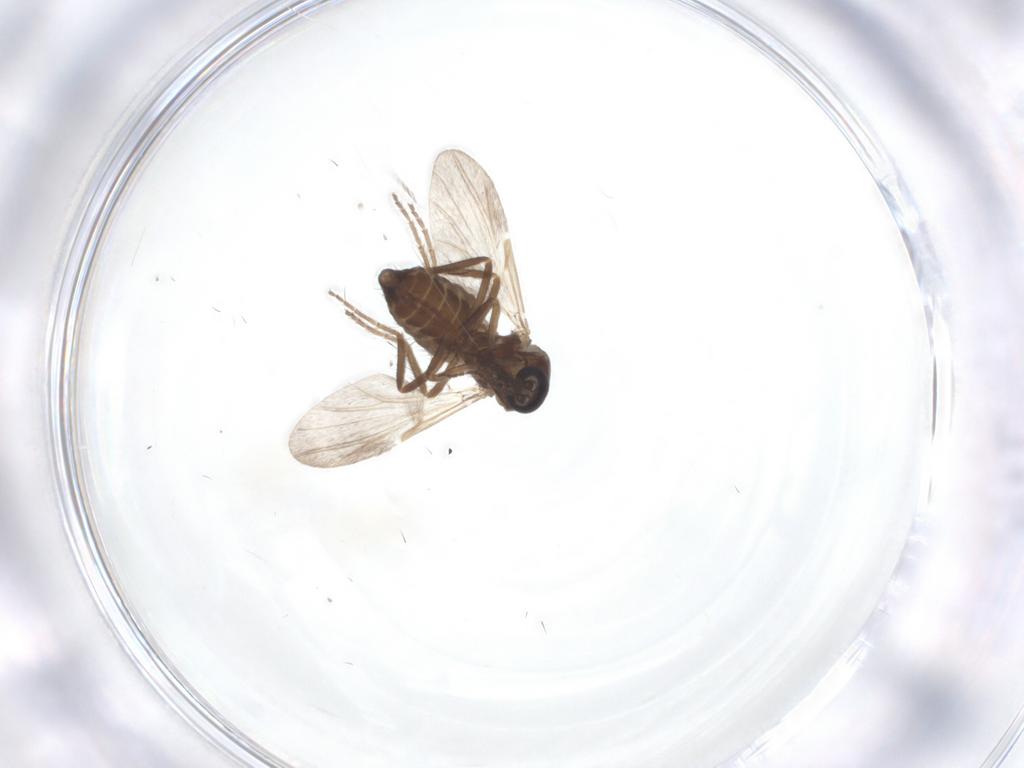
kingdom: Animalia
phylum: Arthropoda
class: Insecta
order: Diptera
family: Ceratopogonidae
